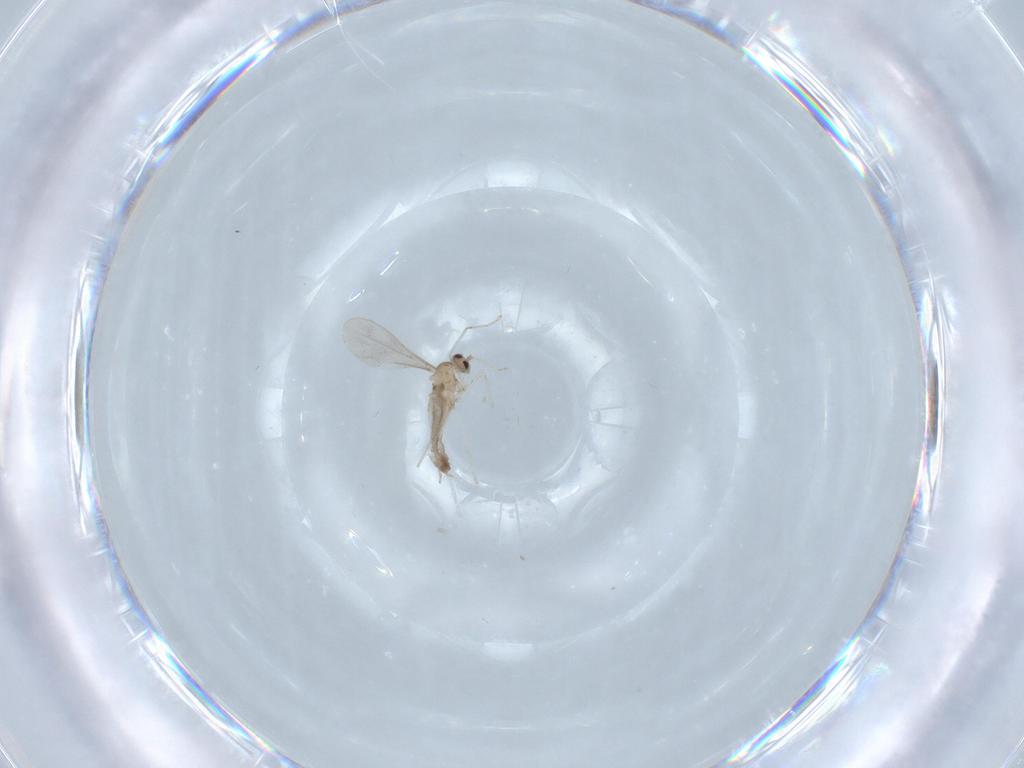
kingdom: Animalia
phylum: Arthropoda
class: Insecta
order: Diptera
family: Cecidomyiidae
